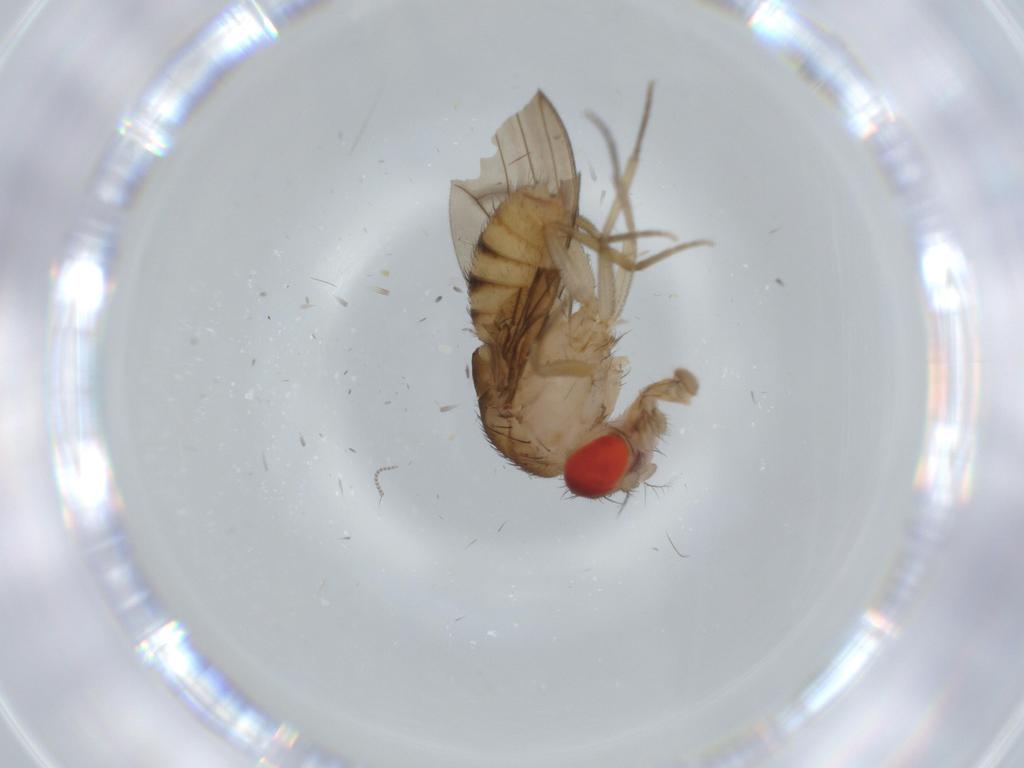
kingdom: Animalia
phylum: Arthropoda
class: Insecta
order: Diptera
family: Drosophilidae
